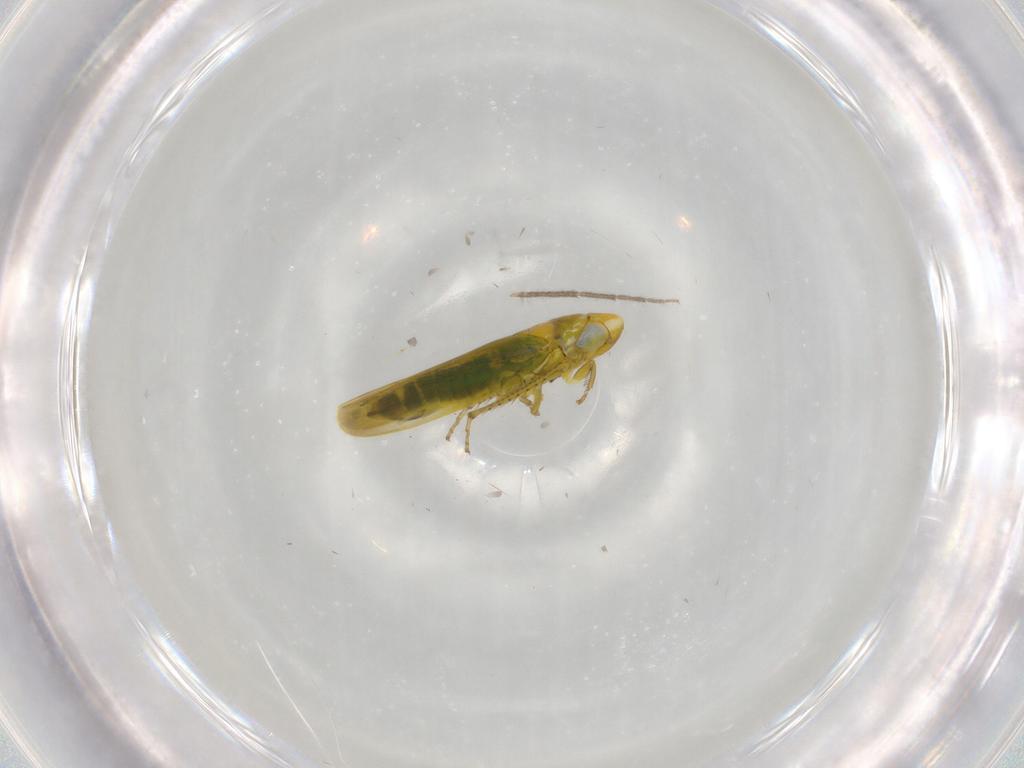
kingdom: Animalia
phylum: Arthropoda
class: Insecta
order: Hemiptera
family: Cicadellidae
